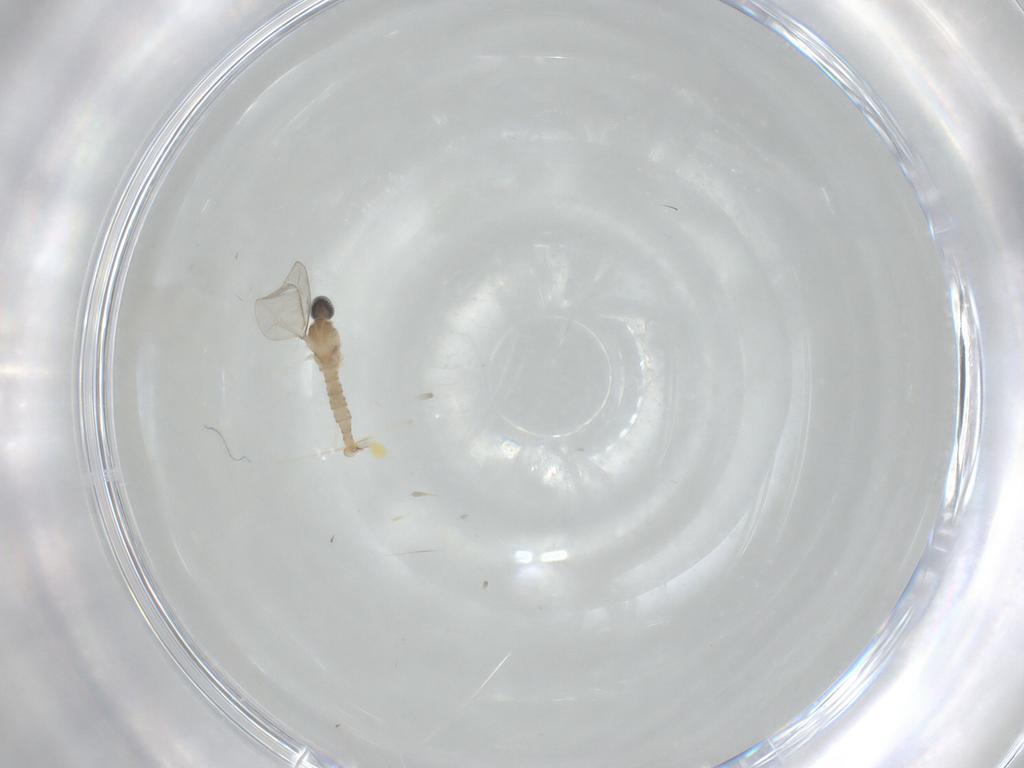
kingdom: Animalia
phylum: Arthropoda
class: Insecta
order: Diptera
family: Cecidomyiidae
